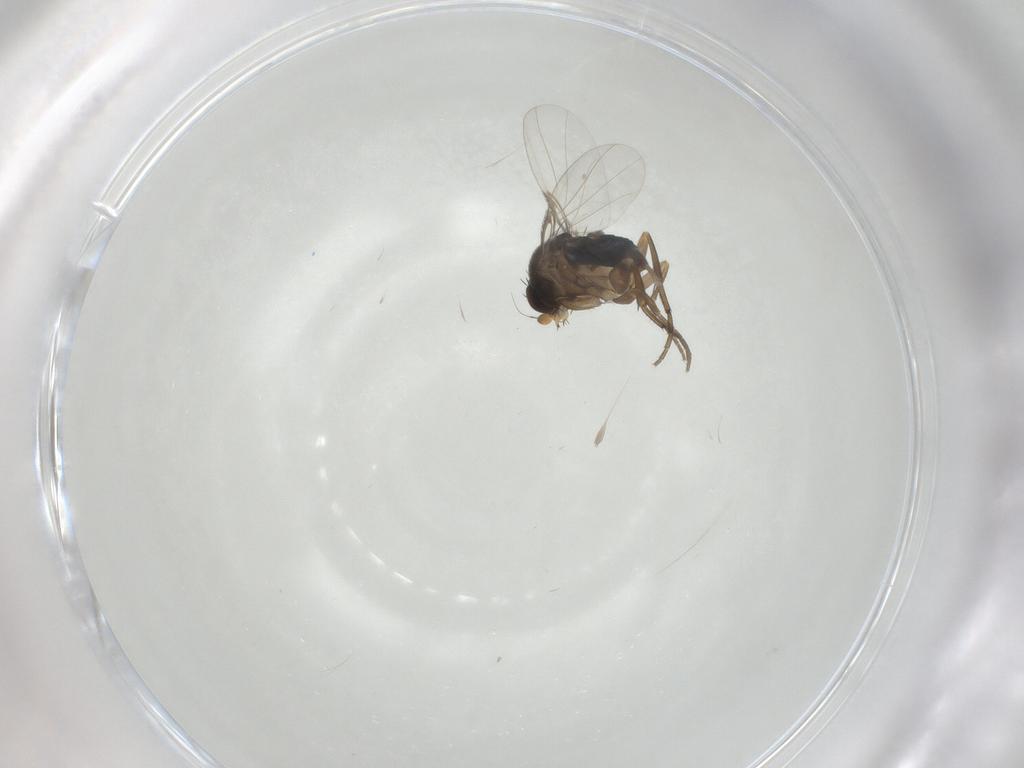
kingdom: Animalia
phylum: Arthropoda
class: Insecta
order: Diptera
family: Phoridae
